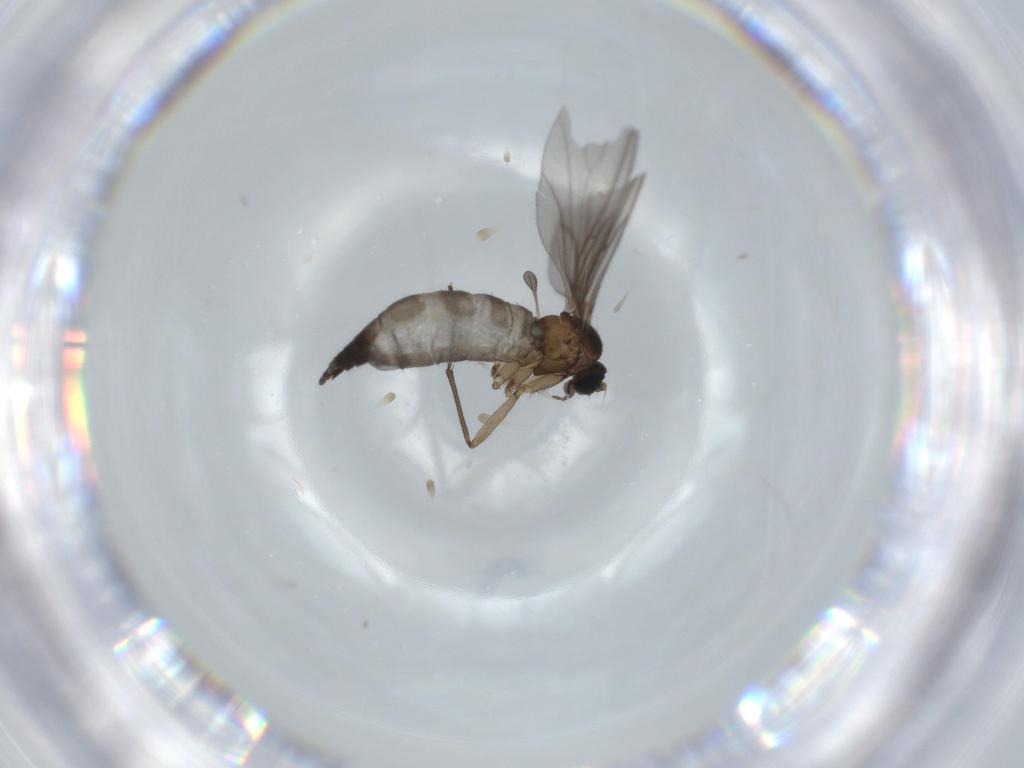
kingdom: Animalia
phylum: Arthropoda
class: Insecta
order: Diptera
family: Sciaridae
